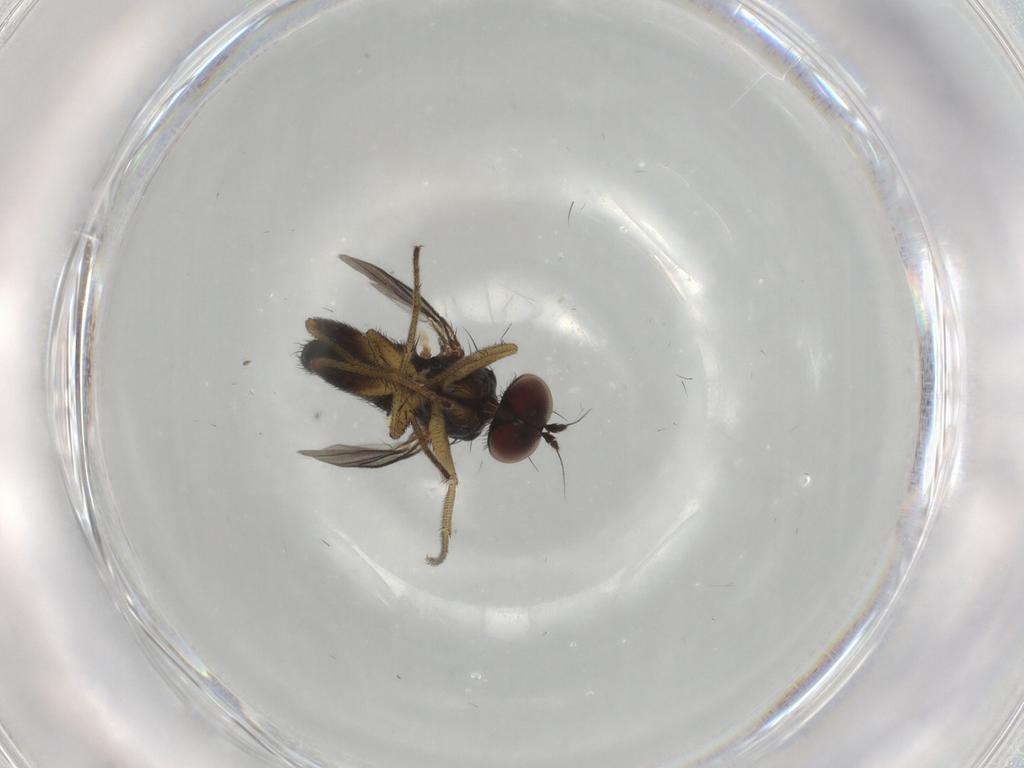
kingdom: Animalia
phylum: Arthropoda
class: Insecta
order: Diptera
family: Dolichopodidae
